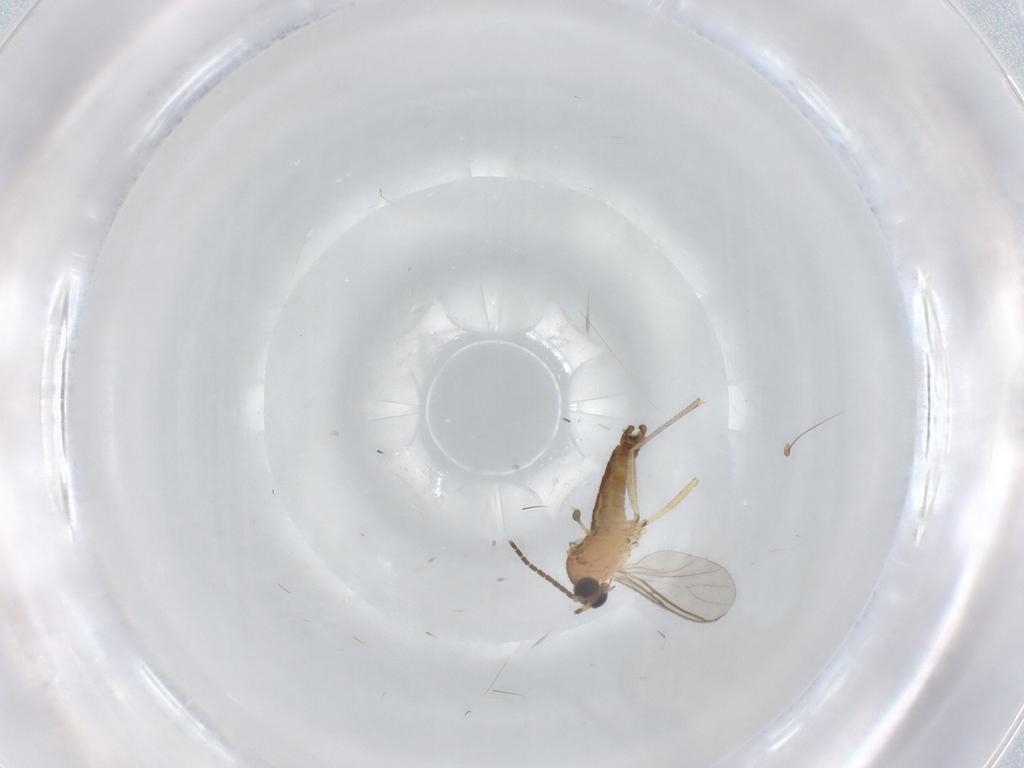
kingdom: Animalia
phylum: Arthropoda
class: Insecta
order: Diptera
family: Sciaridae
